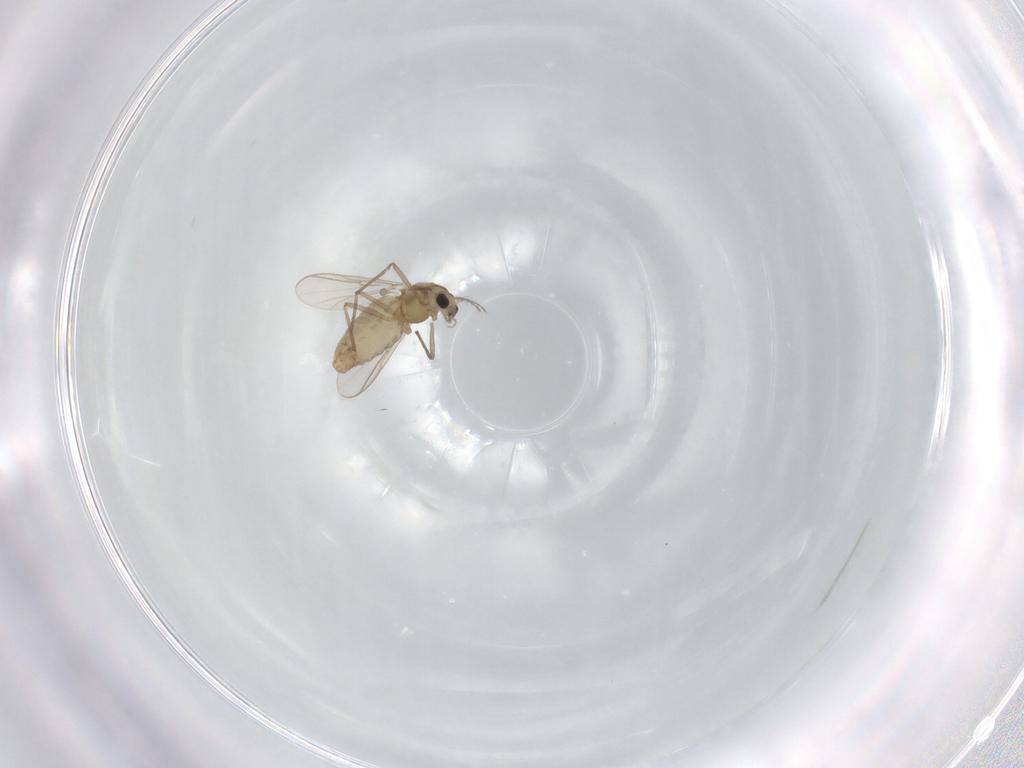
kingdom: Animalia
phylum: Arthropoda
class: Insecta
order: Diptera
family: Chironomidae
